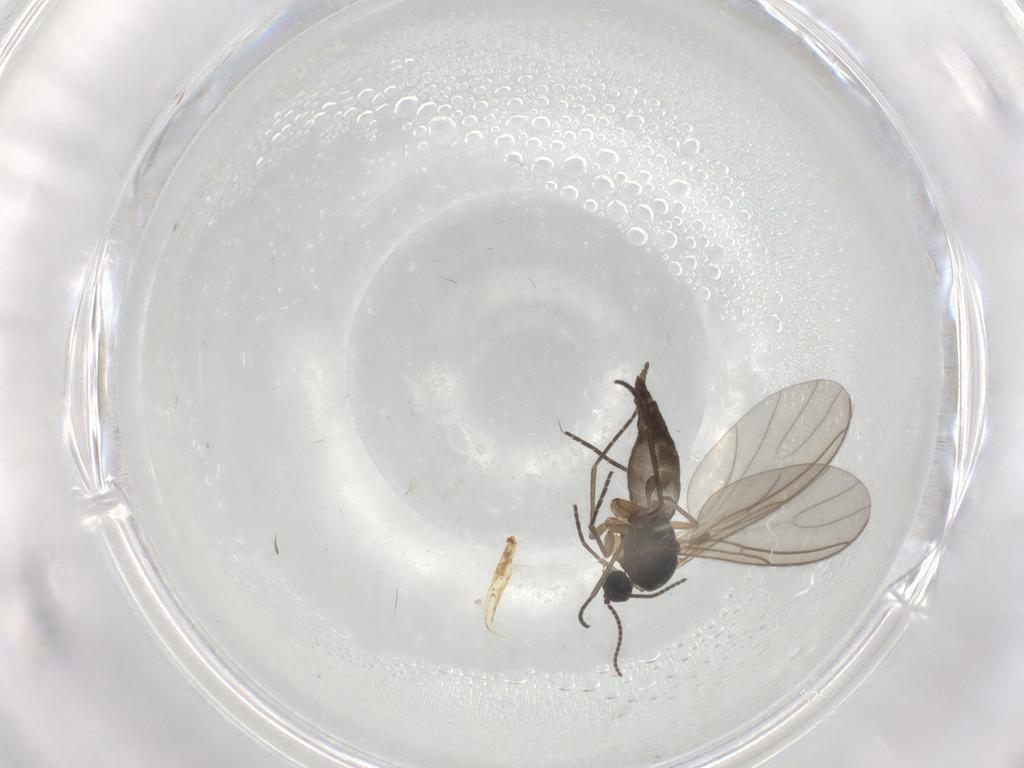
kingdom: Animalia
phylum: Arthropoda
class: Insecta
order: Diptera
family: Sciaridae
